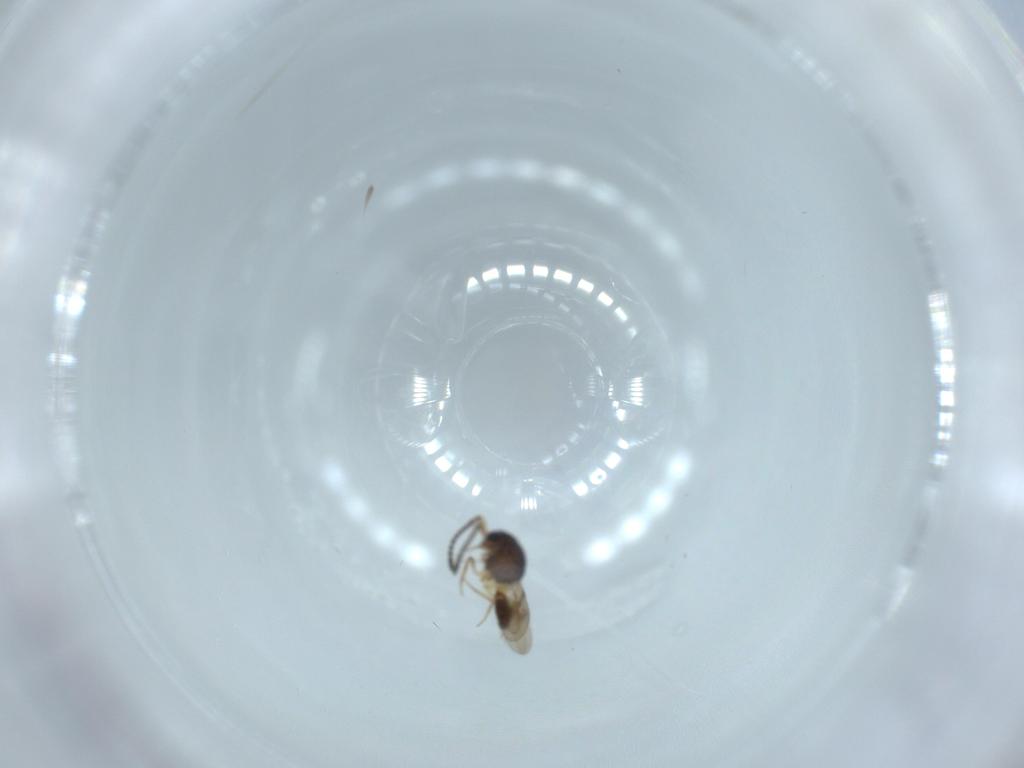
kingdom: Animalia
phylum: Arthropoda
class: Arachnida
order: Araneae
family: Pholcidae
